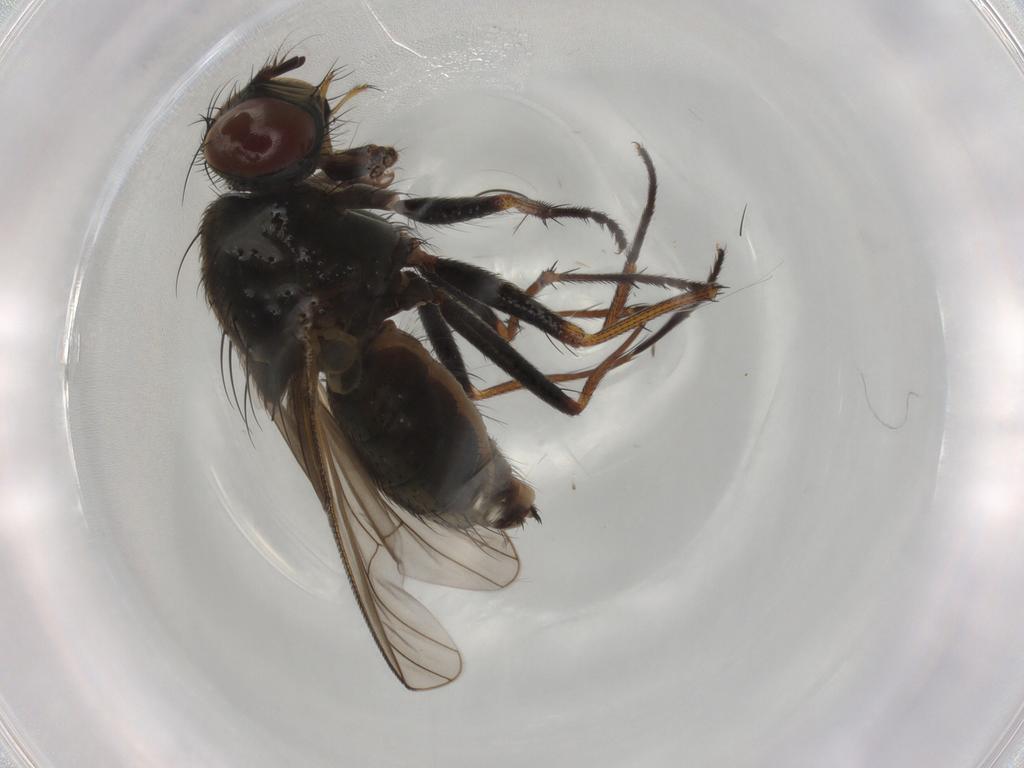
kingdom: Animalia
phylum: Arthropoda
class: Insecta
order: Diptera
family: Muscidae
